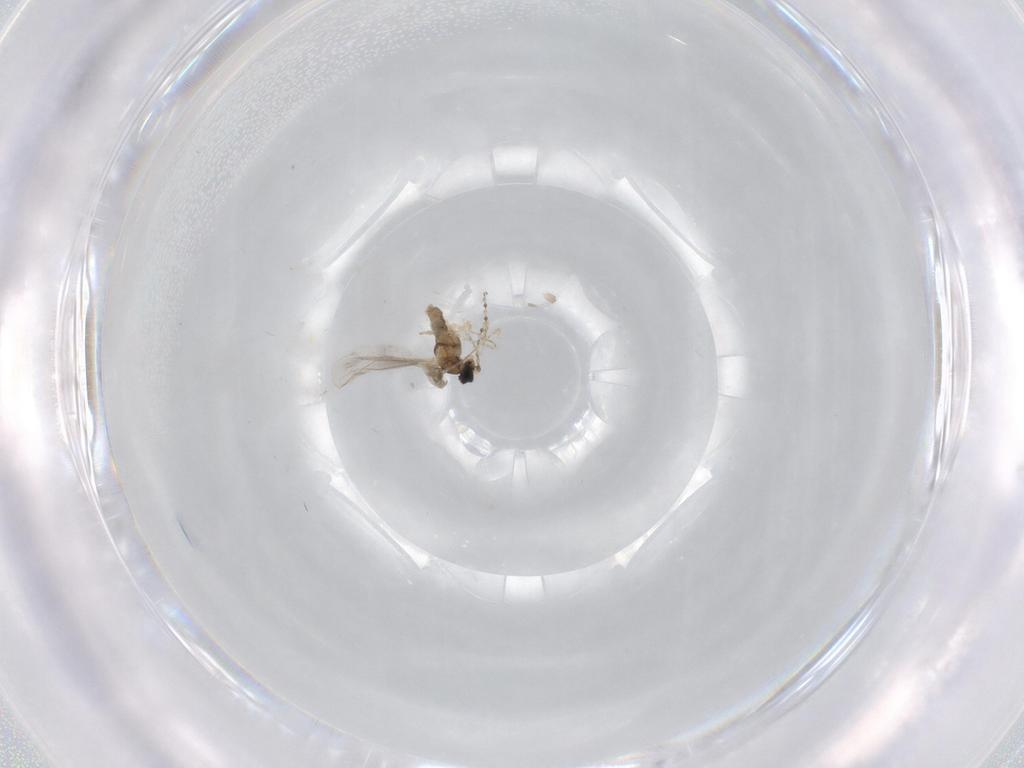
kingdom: Animalia
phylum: Arthropoda
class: Insecta
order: Diptera
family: Cecidomyiidae
